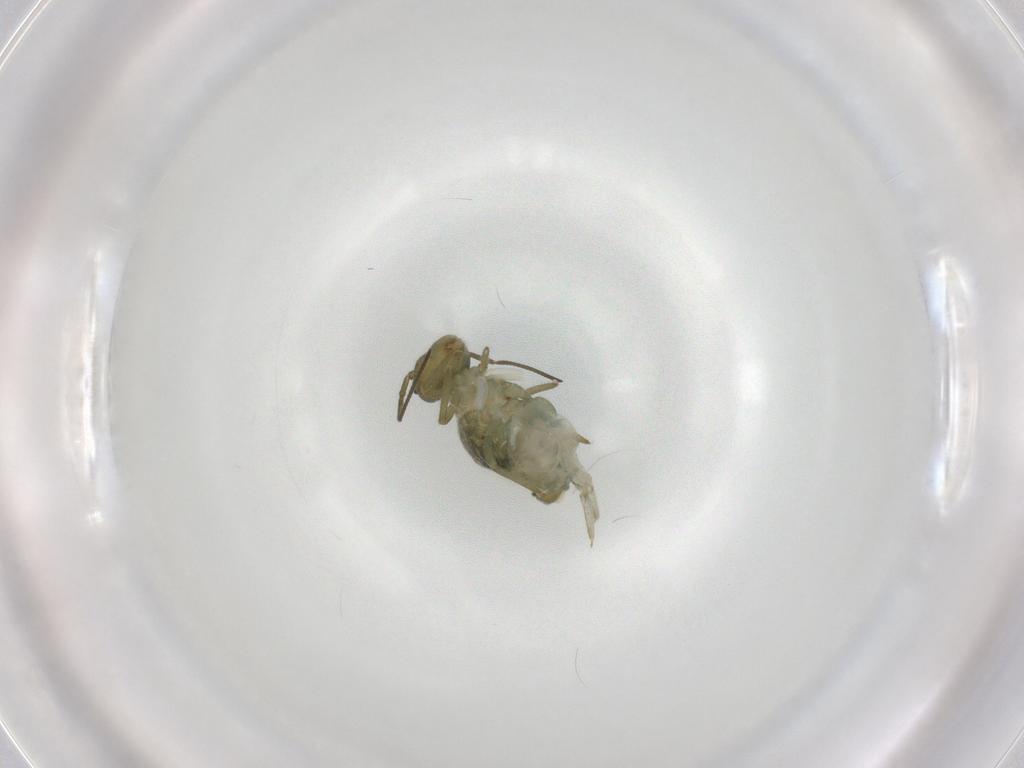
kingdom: Animalia
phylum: Arthropoda
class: Collembola
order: Symphypleona
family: Sminthuridae
